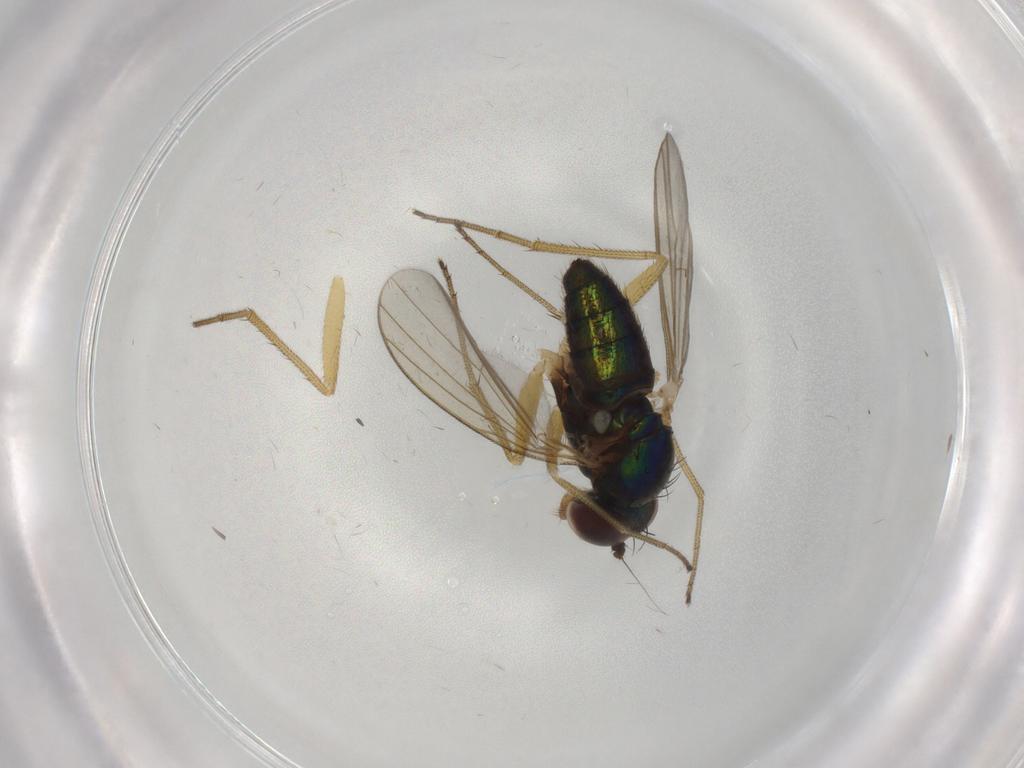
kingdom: Animalia
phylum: Arthropoda
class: Insecta
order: Diptera
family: Dolichopodidae
